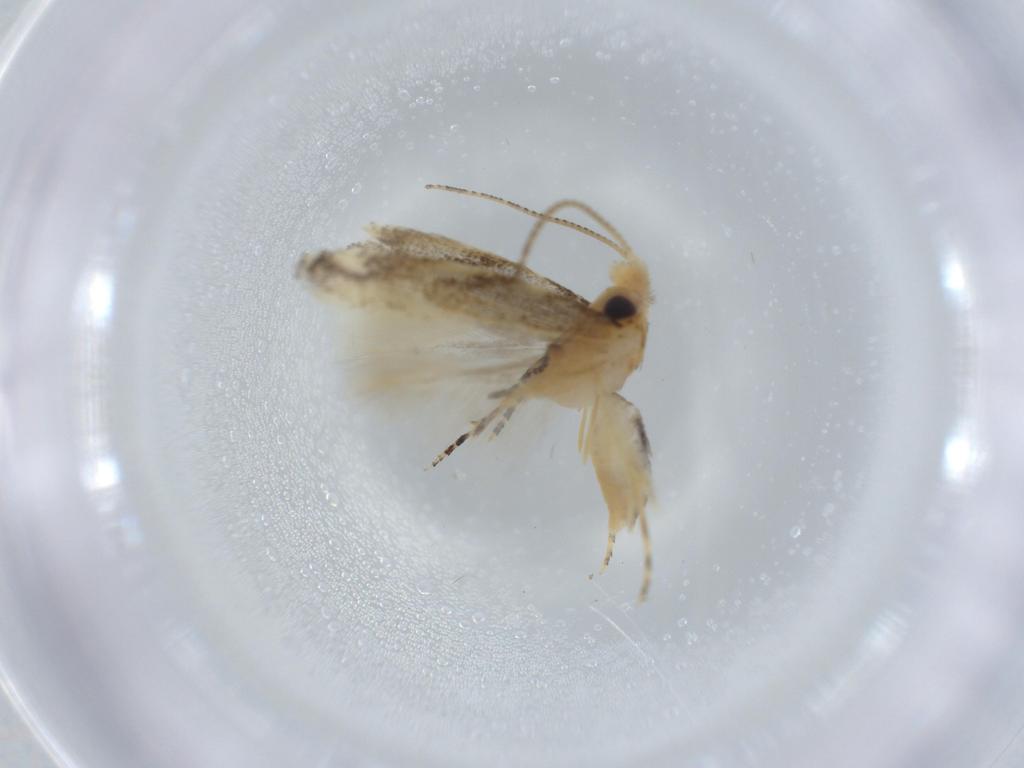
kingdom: Animalia
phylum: Arthropoda
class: Insecta
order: Lepidoptera
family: Bucculatricidae
